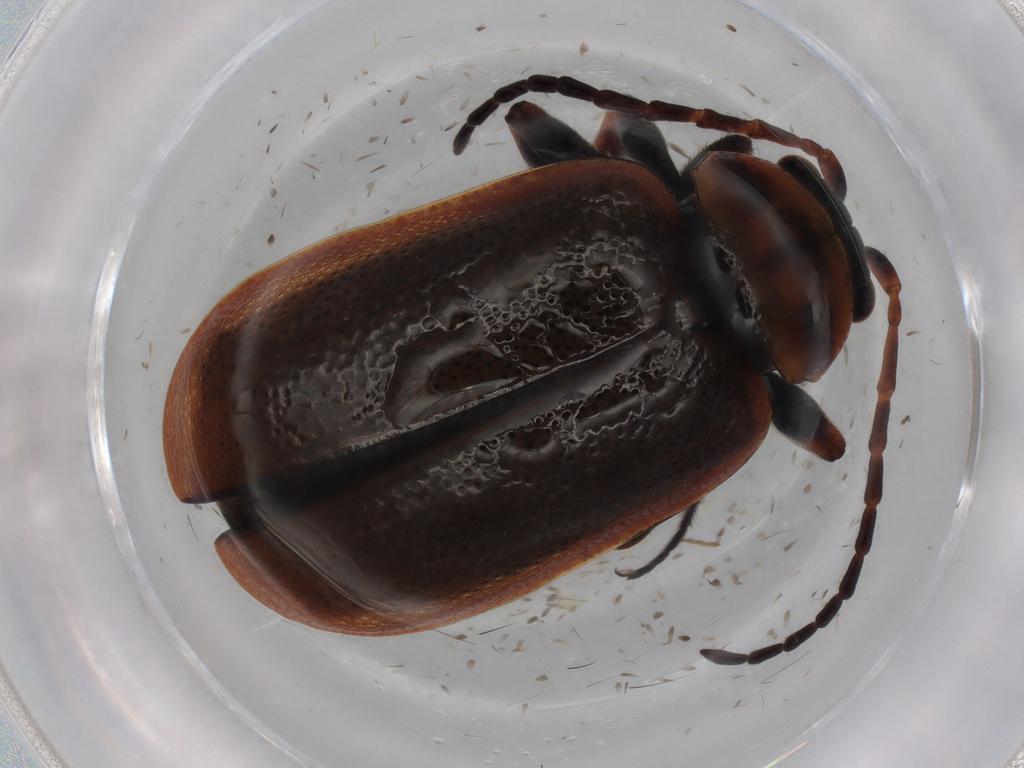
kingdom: Animalia
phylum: Arthropoda
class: Insecta
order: Coleoptera
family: Chrysomelidae
